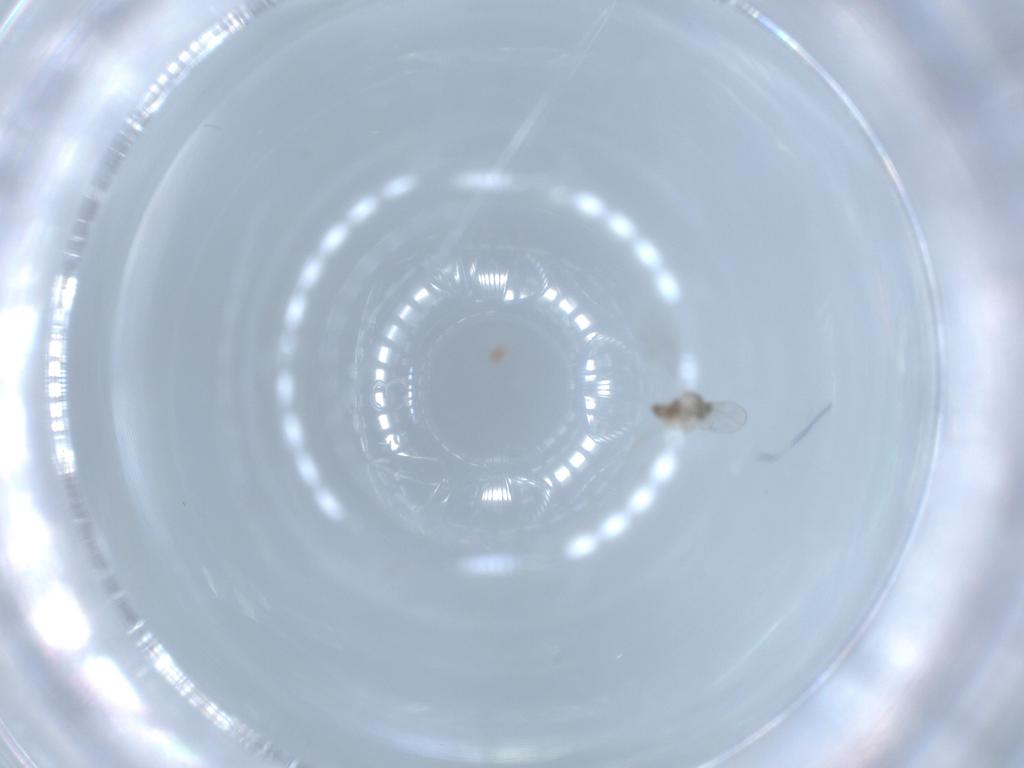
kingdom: Animalia
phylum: Arthropoda
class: Insecta
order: Diptera
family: Cecidomyiidae
